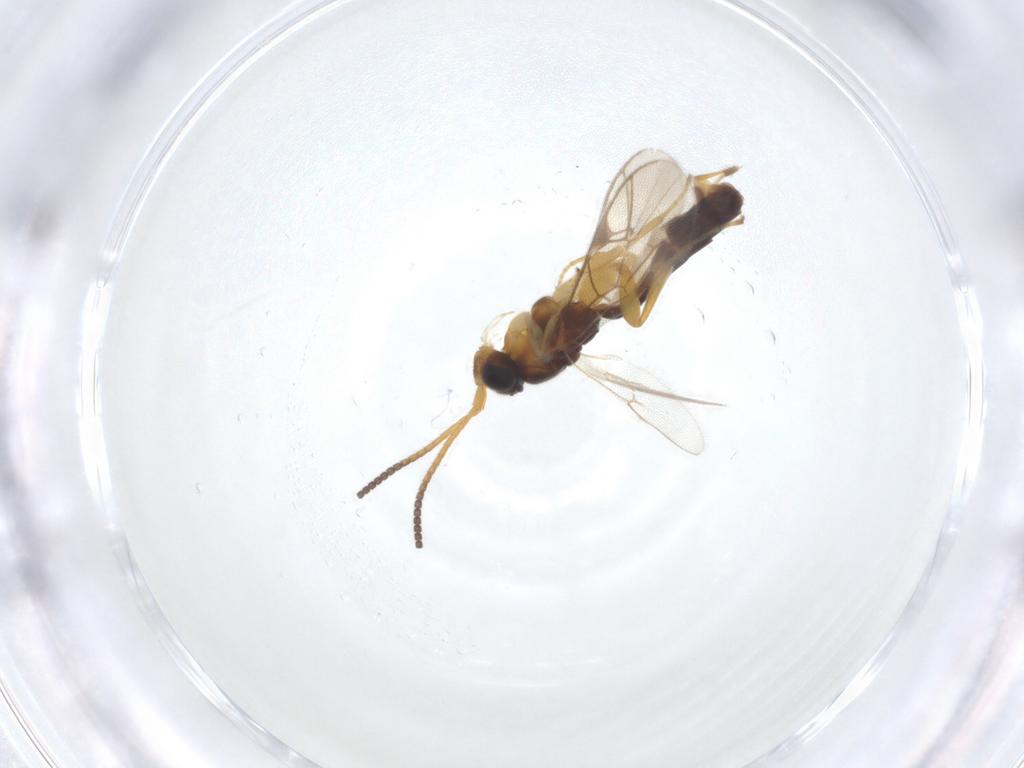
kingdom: Animalia
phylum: Arthropoda
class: Insecta
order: Hymenoptera
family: Ichneumonidae
